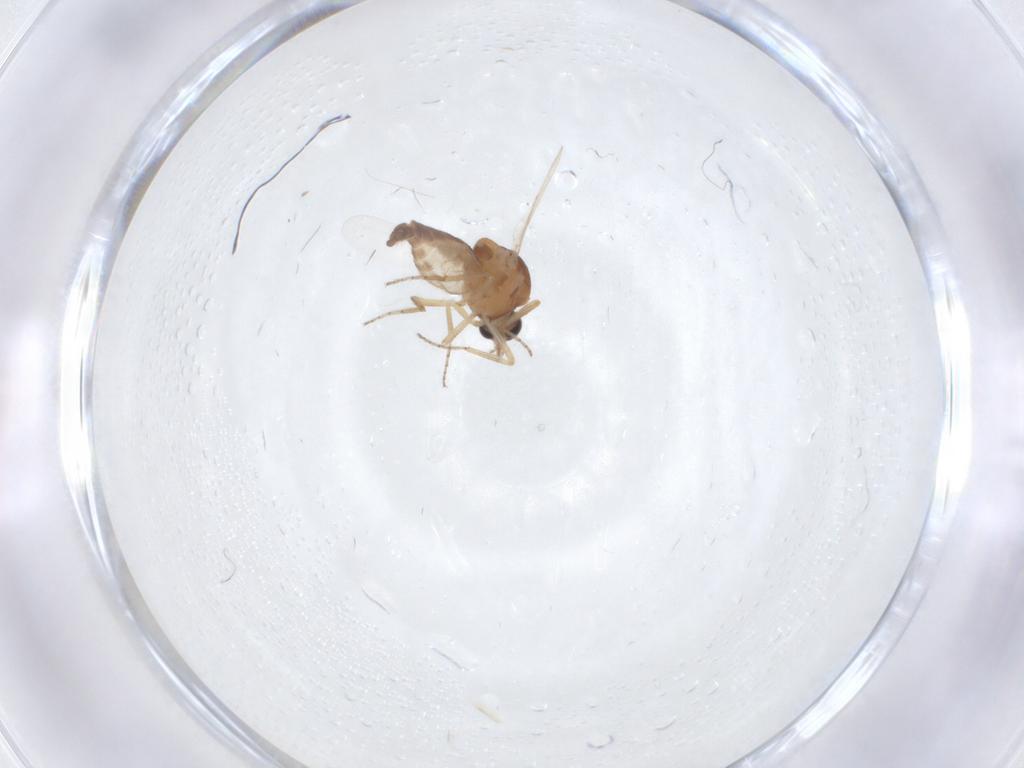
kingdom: Animalia
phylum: Arthropoda
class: Insecta
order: Diptera
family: Ceratopogonidae
